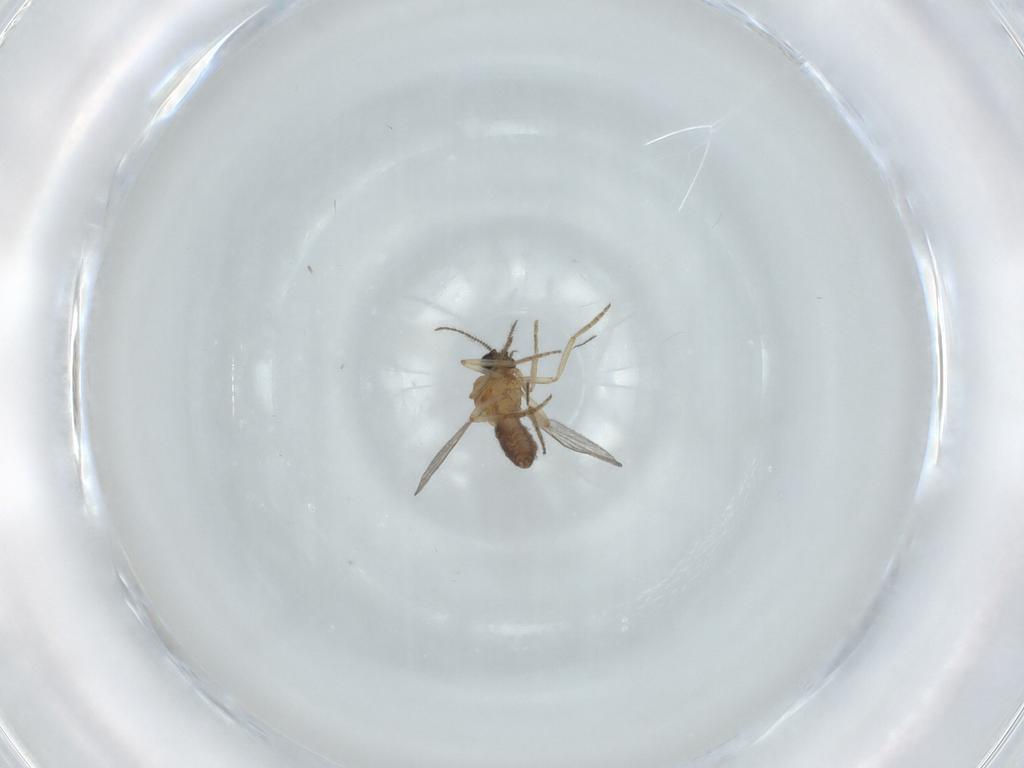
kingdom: Animalia
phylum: Arthropoda
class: Insecta
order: Diptera
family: Ceratopogonidae
